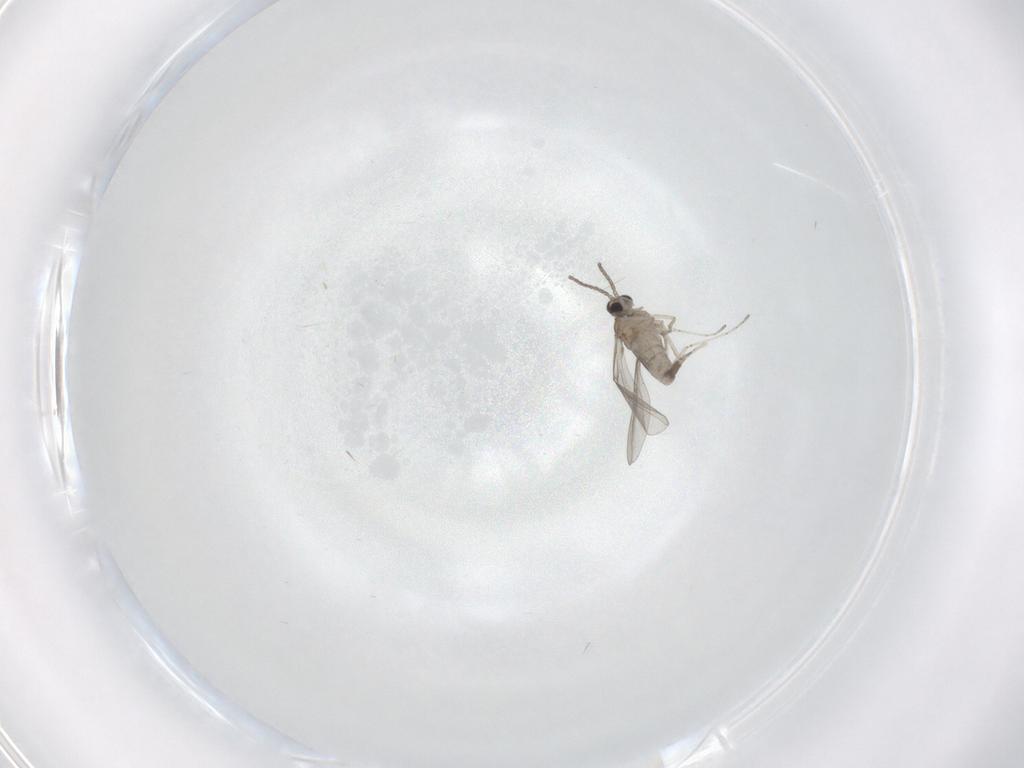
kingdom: Animalia
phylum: Arthropoda
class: Insecta
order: Diptera
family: Cecidomyiidae
